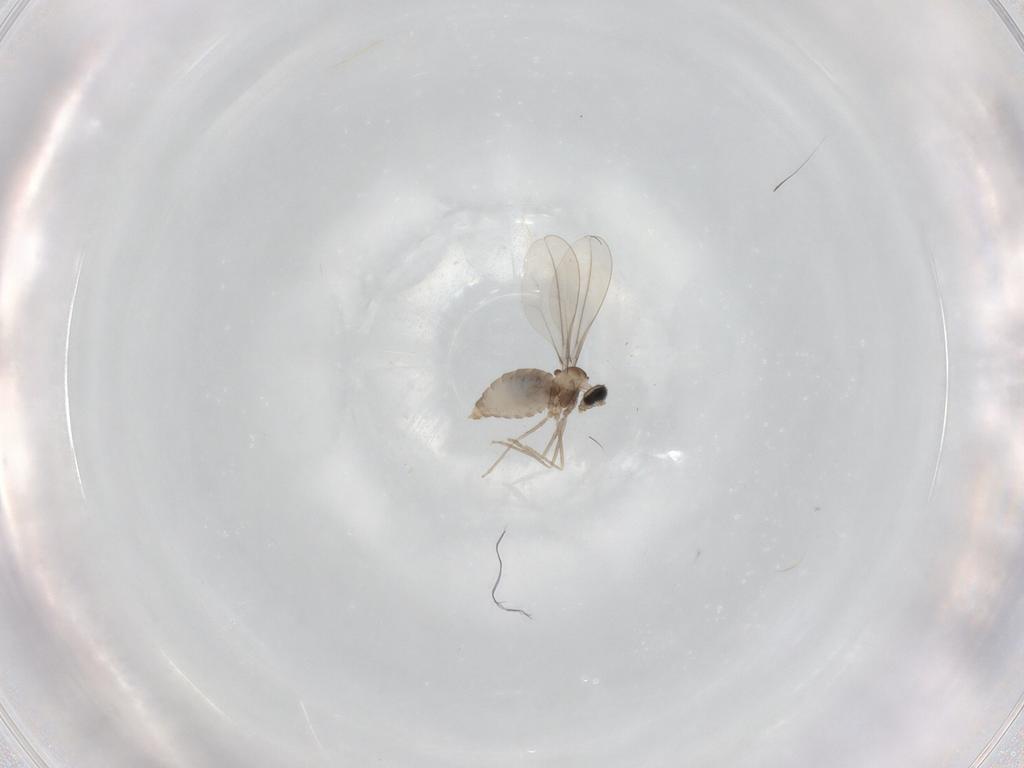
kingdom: Animalia
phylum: Arthropoda
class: Insecta
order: Diptera
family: Cecidomyiidae
